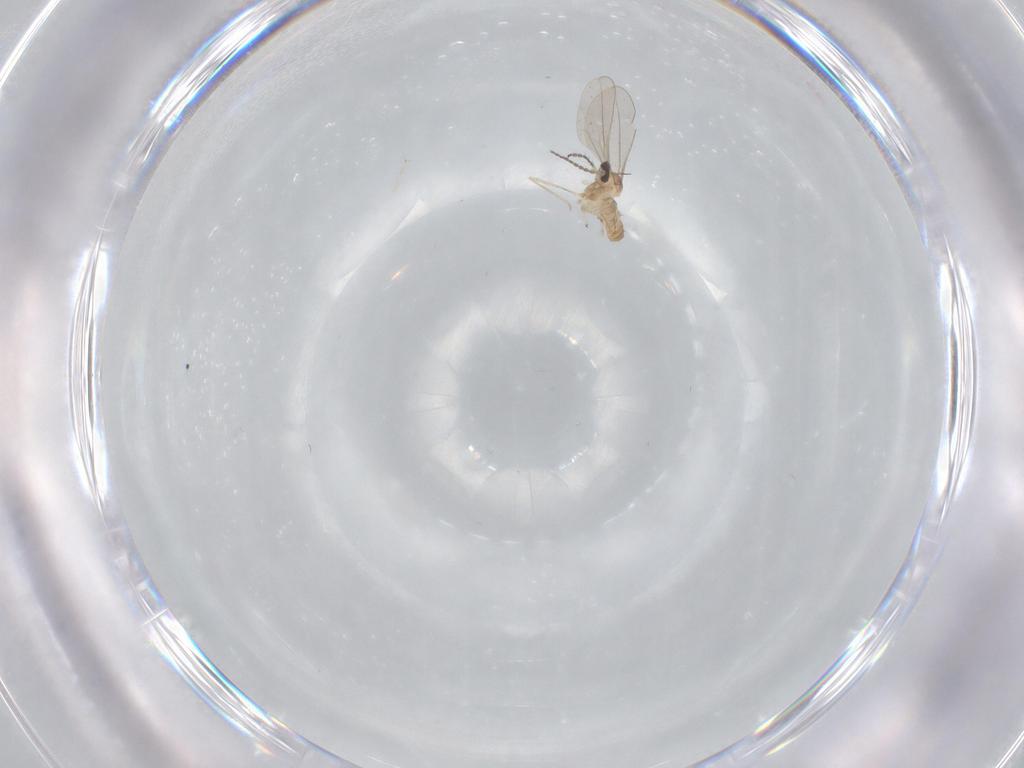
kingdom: Animalia
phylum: Arthropoda
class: Insecta
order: Diptera
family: Cecidomyiidae
